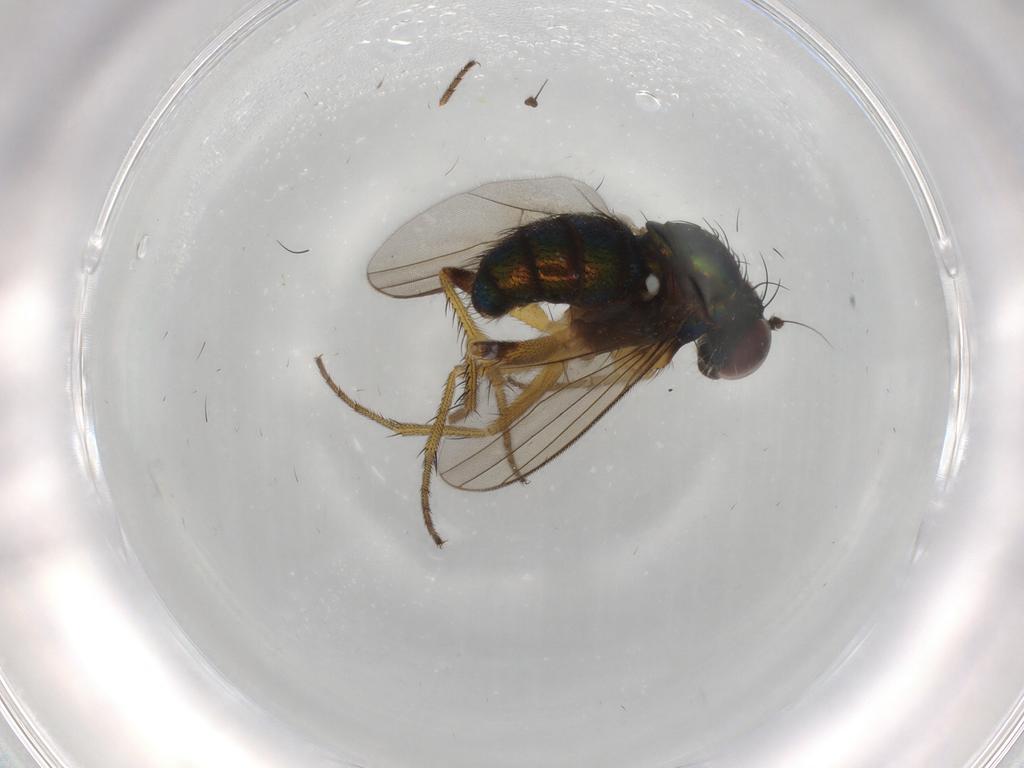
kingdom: Animalia
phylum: Arthropoda
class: Insecta
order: Diptera
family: Dolichopodidae
